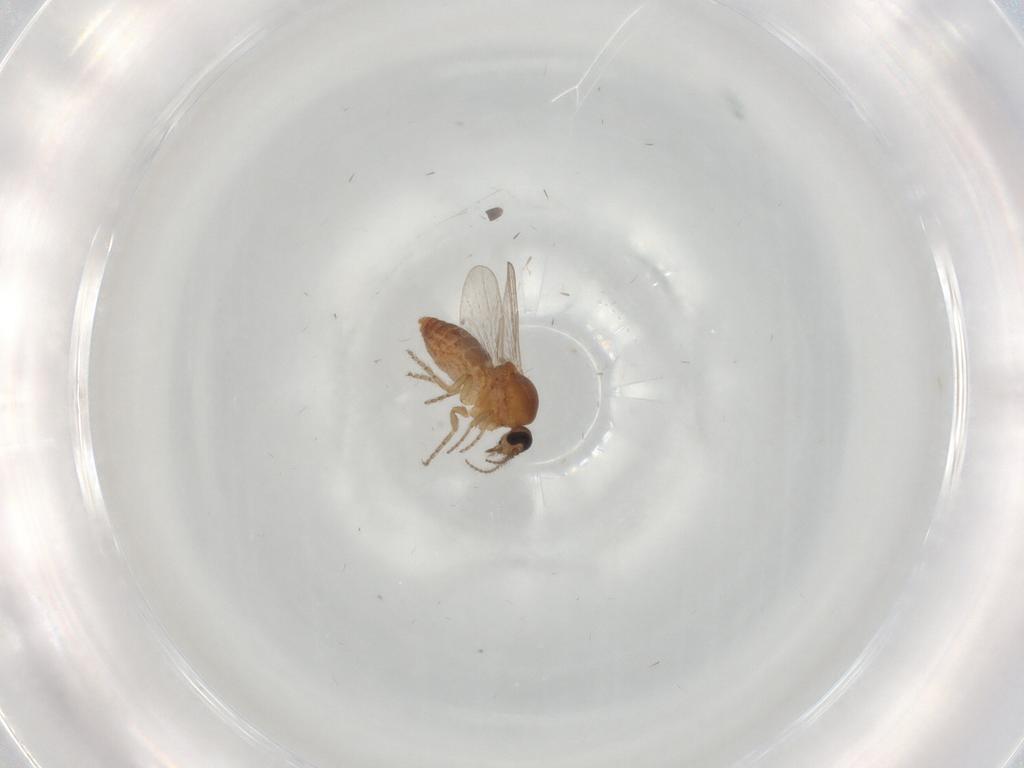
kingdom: Animalia
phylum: Arthropoda
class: Insecta
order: Diptera
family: Ceratopogonidae
